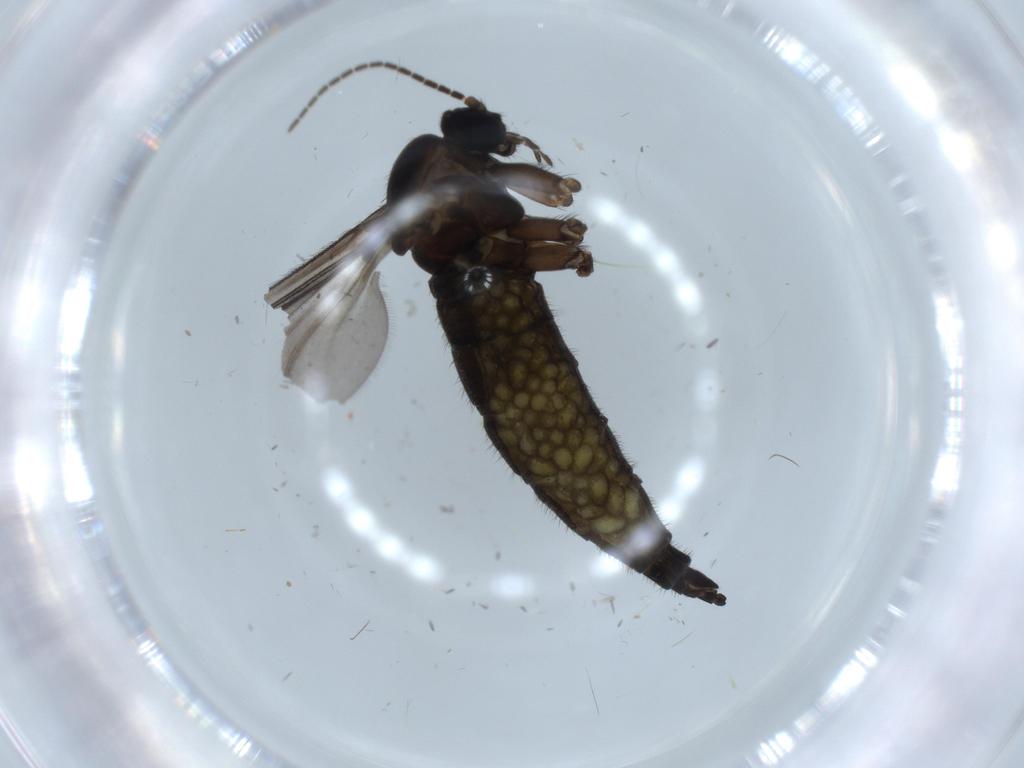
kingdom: Animalia
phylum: Arthropoda
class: Insecta
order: Diptera
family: Sciaridae
